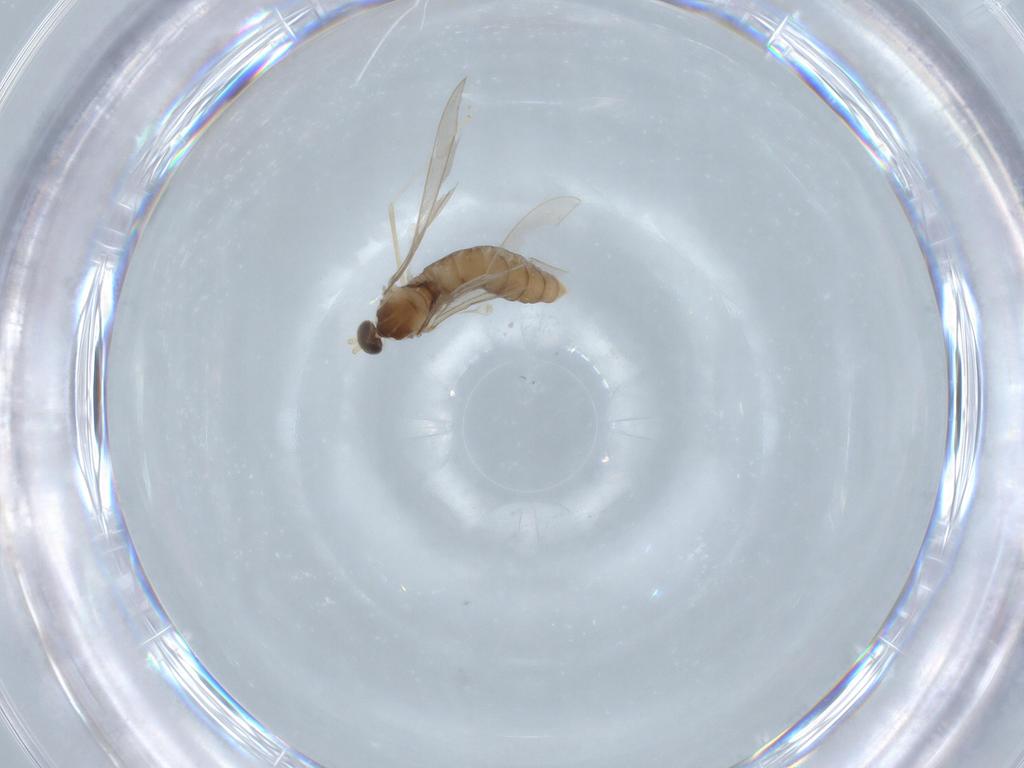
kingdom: Animalia
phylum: Arthropoda
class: Insecta
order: Diptera
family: Cecidomyiidae
